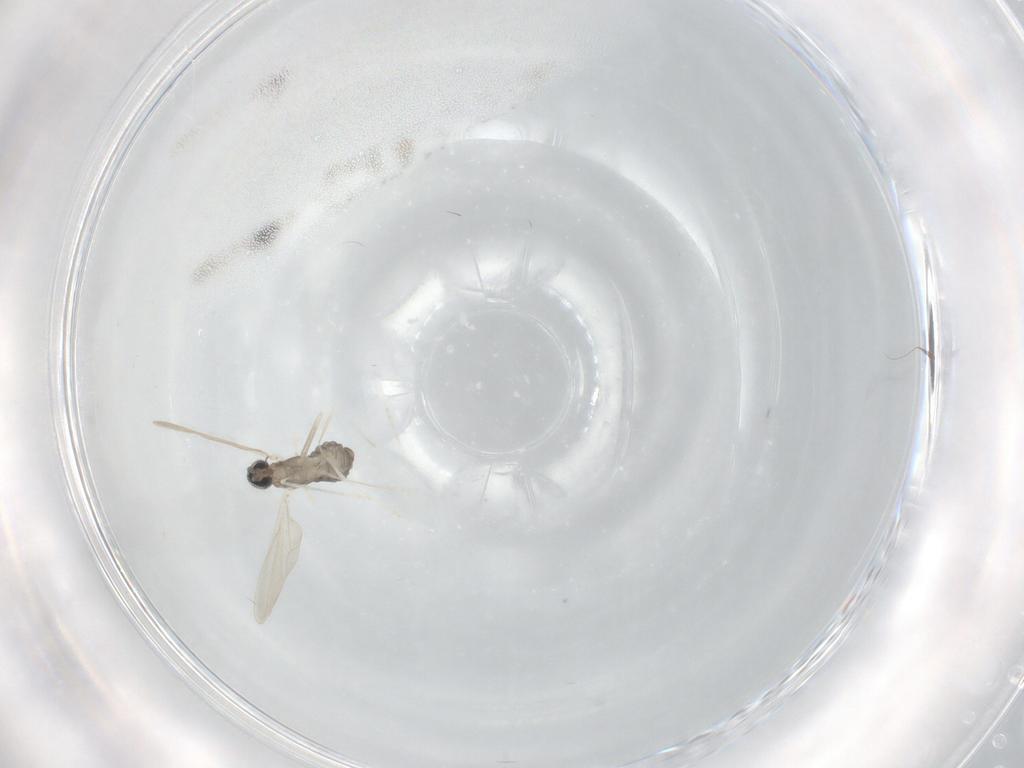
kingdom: Animalia
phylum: Arthropoda
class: Insecta
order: Diptera
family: Cecidomyiidae
